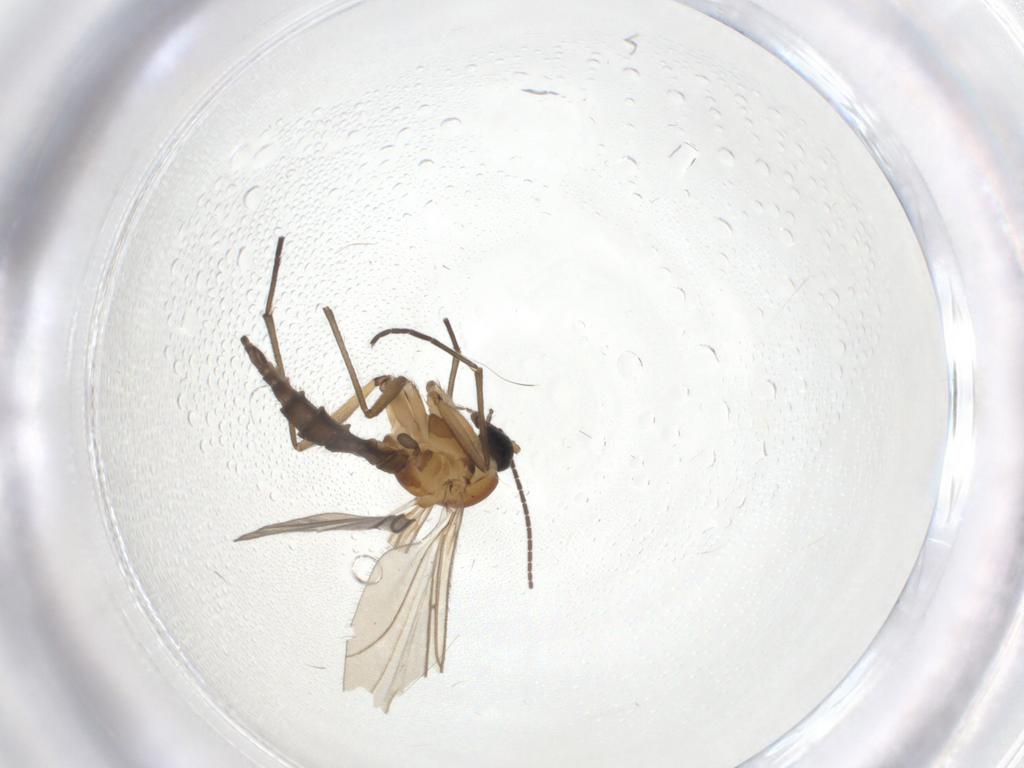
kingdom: Animalia
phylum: Arthropoda
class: Insecta
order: Diptera
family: Sciaridae
